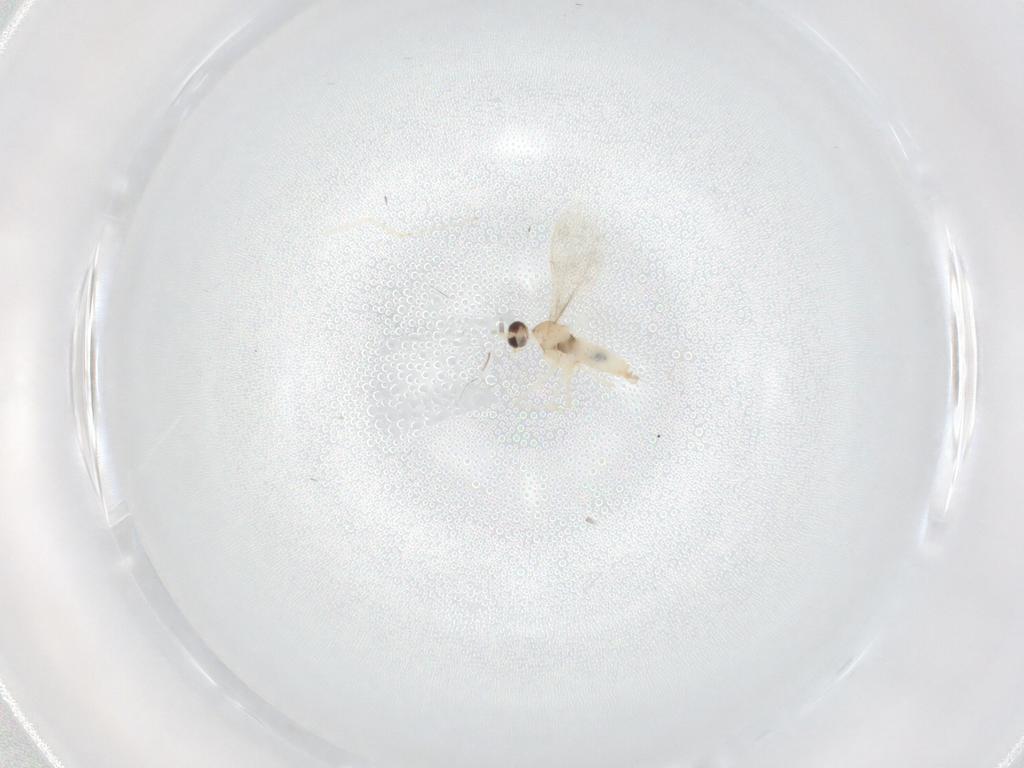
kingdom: Animalia
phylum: Arthropoda
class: Insecta
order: Diptera
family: Cecidomyiidae
